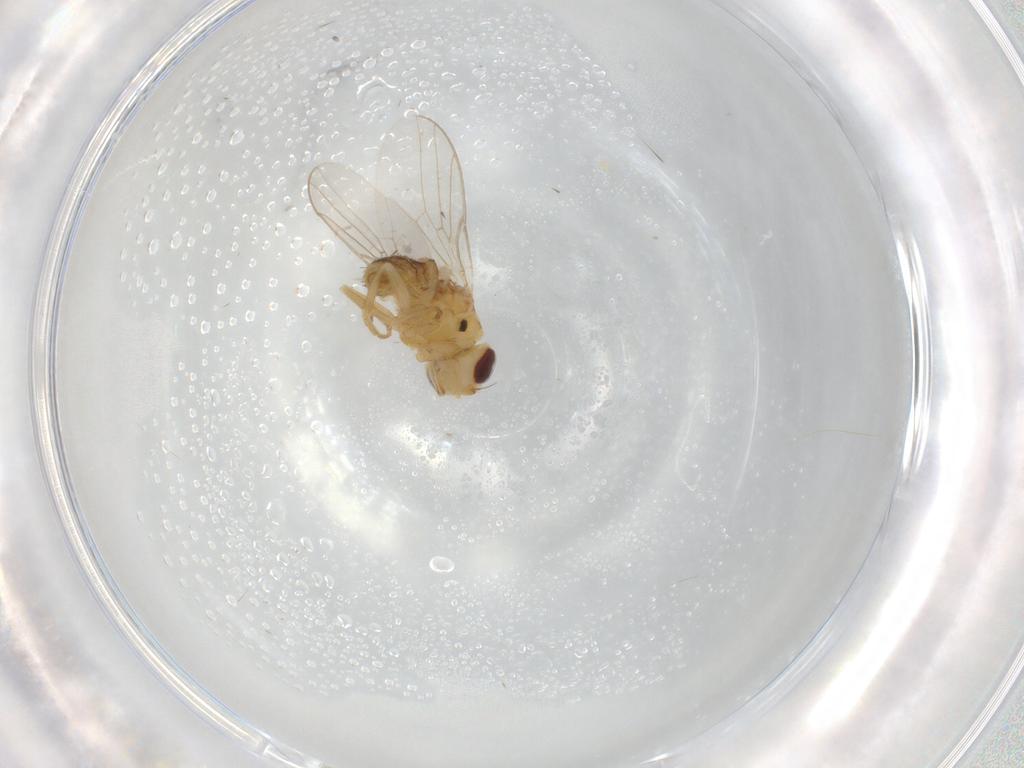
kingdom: Animalia
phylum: Arthropoda
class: Insecta
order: Diptera
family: Chloropidae
